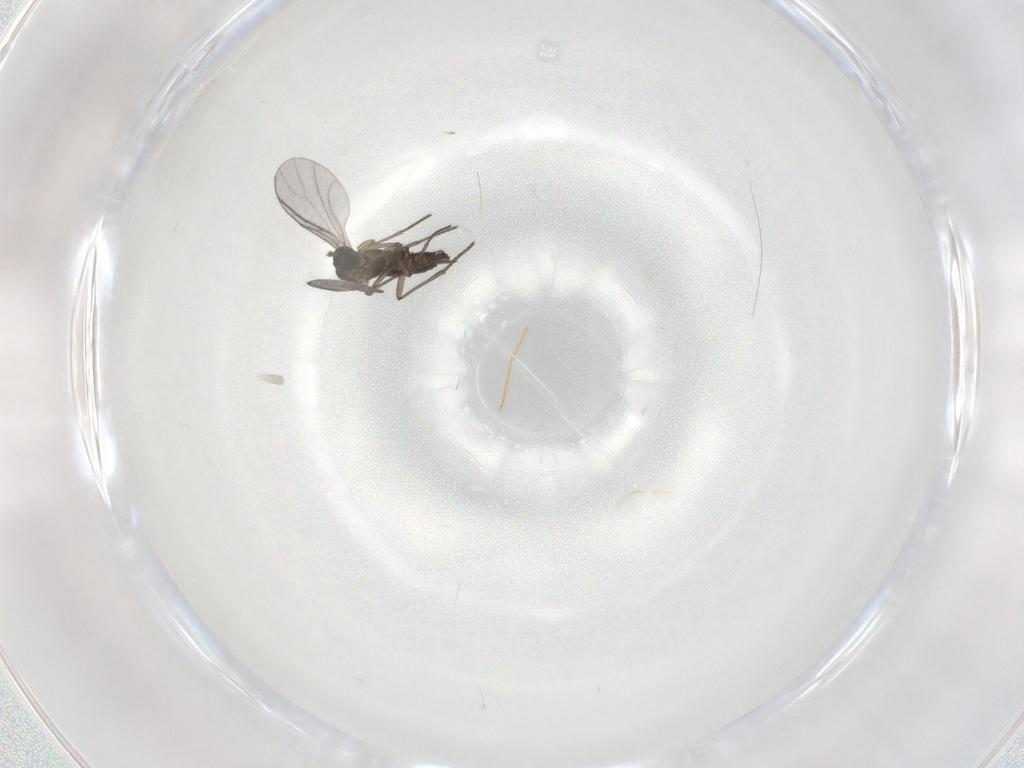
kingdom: Animalia
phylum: Arthropoda
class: Insecta
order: Diptera
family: Sciaridae
